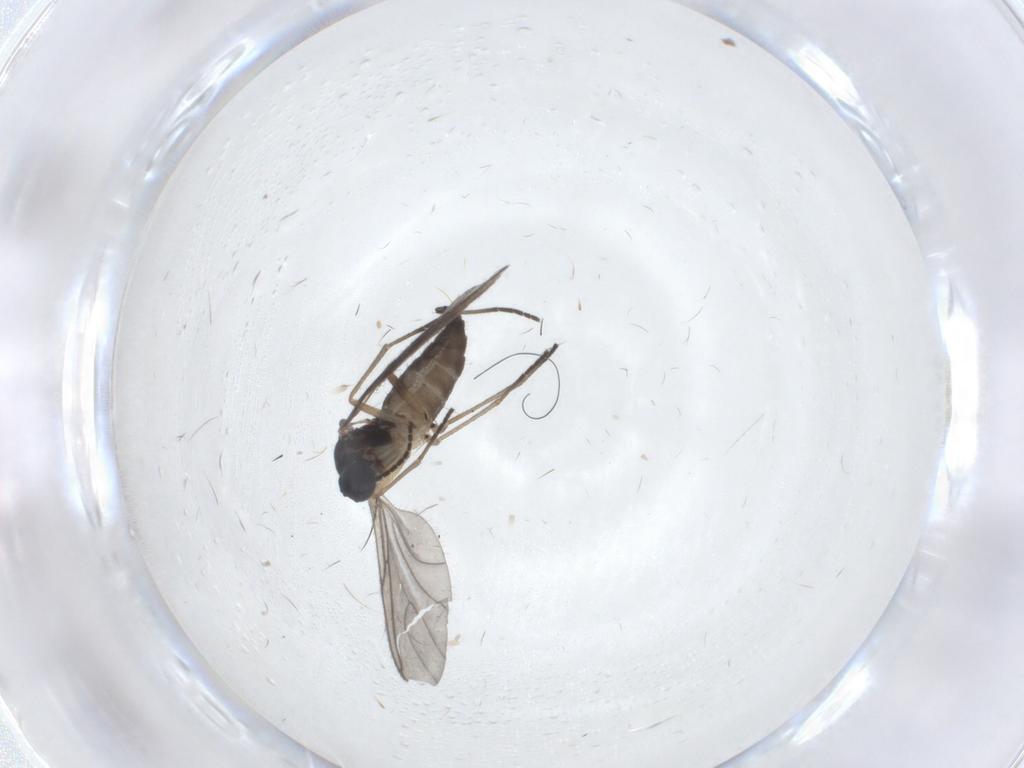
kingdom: Animalia
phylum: Arthropoda
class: Insecta
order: Diptera
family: Sciaridae
